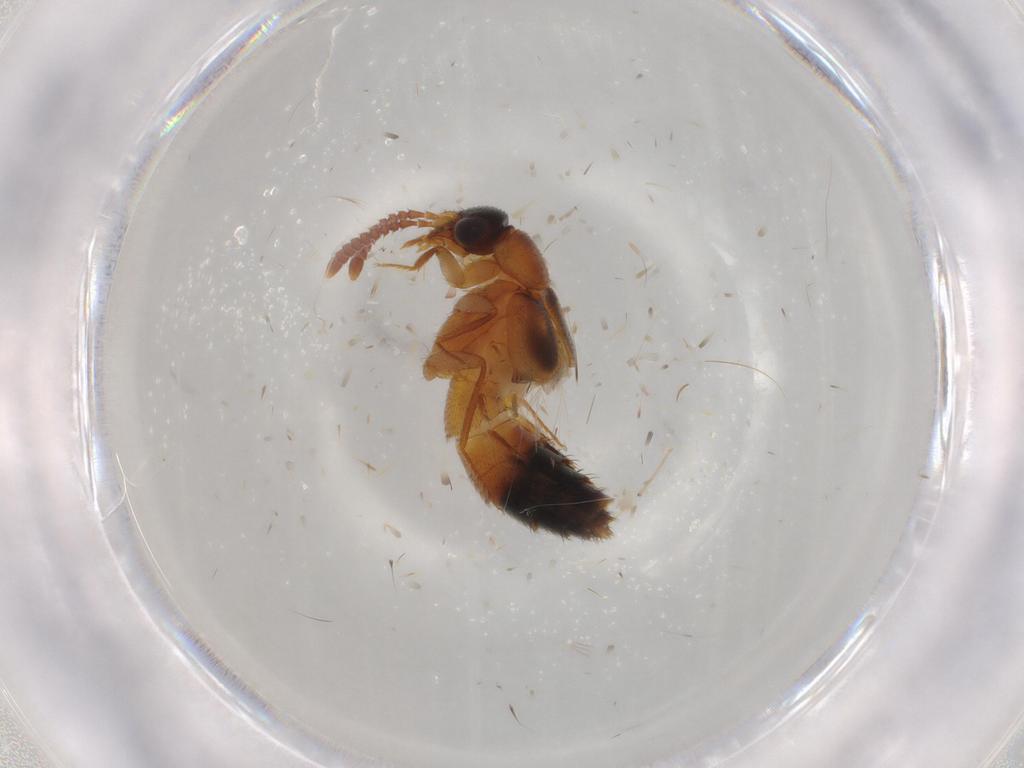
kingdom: Animalia
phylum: Arthropoda
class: Insecta
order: Coleoptera
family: Staphylinidae
